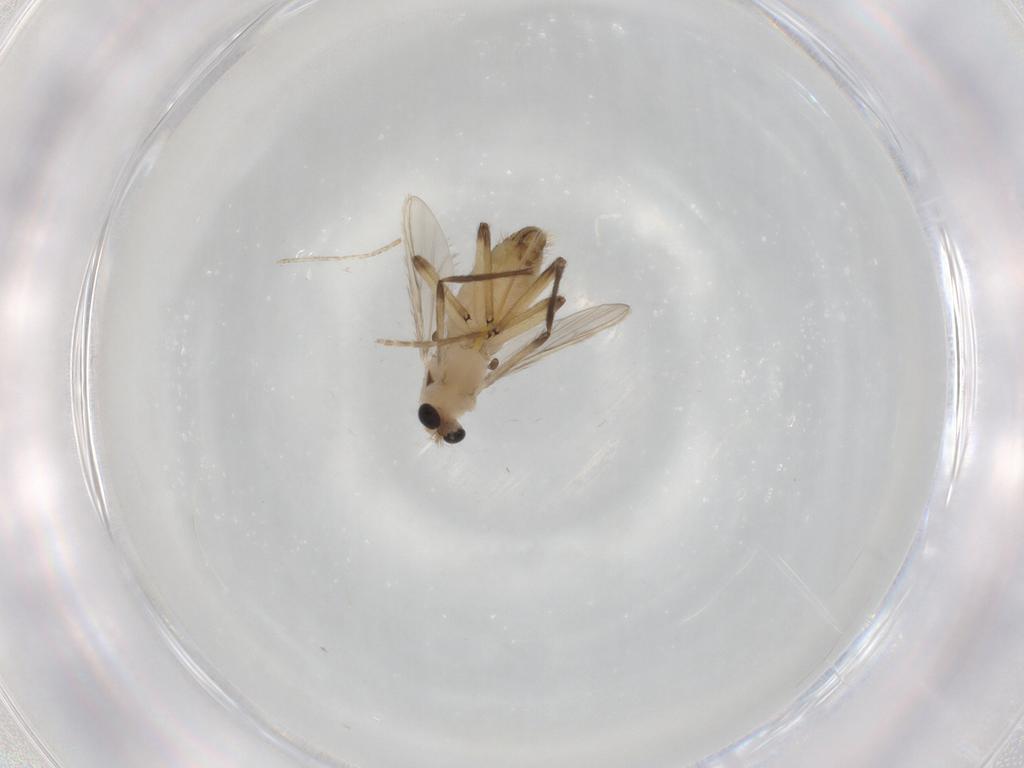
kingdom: Animalia
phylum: Arthropoda
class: Insecta
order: Diptera
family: Chironomidae
